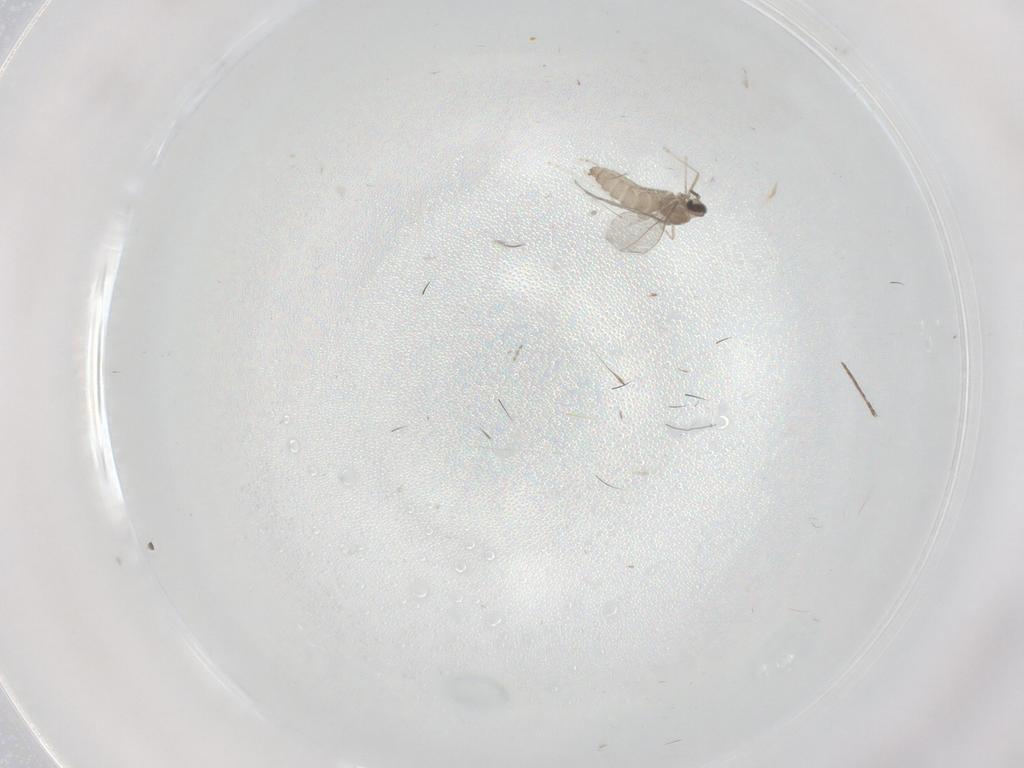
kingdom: Animalia
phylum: Arthropoda
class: Insecta
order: Diptera
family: Cecidomyiidae
